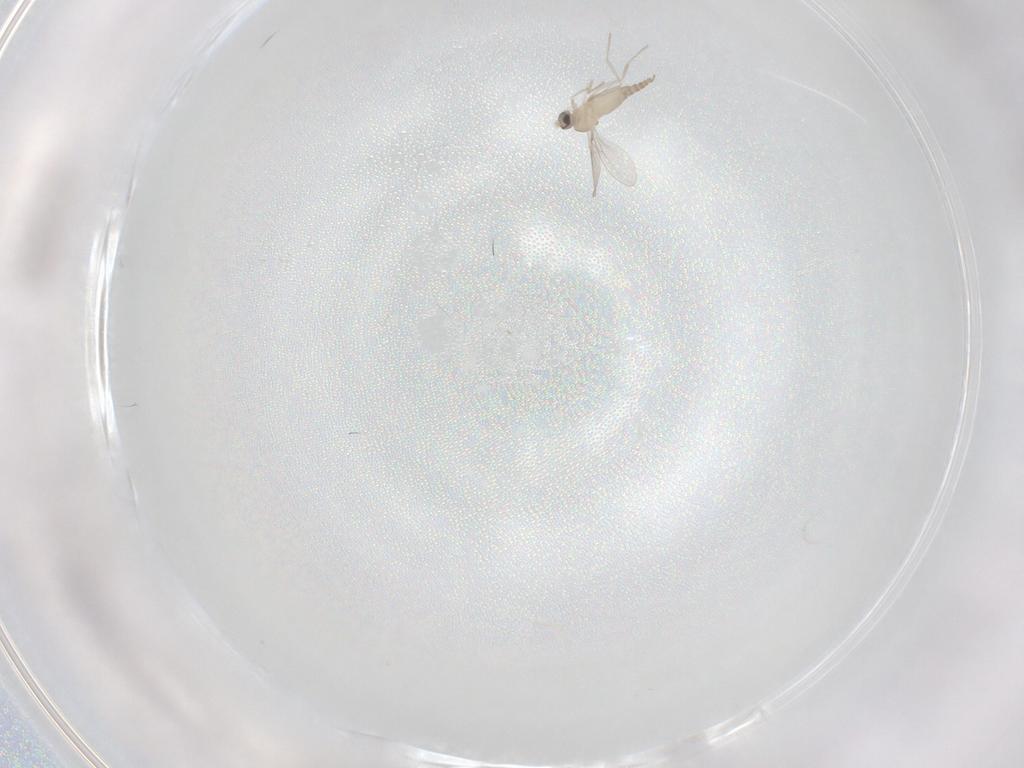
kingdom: Animalia
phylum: Arthropoda
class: Insecta
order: Diptera
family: Cecidomyiidae
